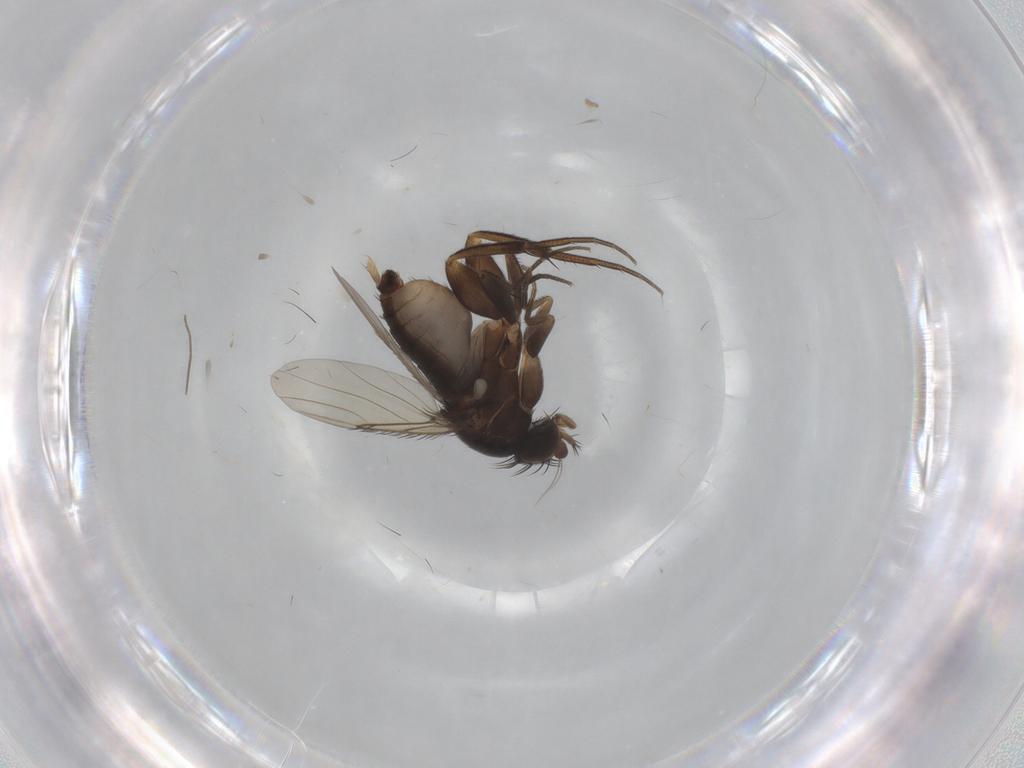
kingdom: Animalia
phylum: Arthropoda
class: Insecta
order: Diptera
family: Phoridae
